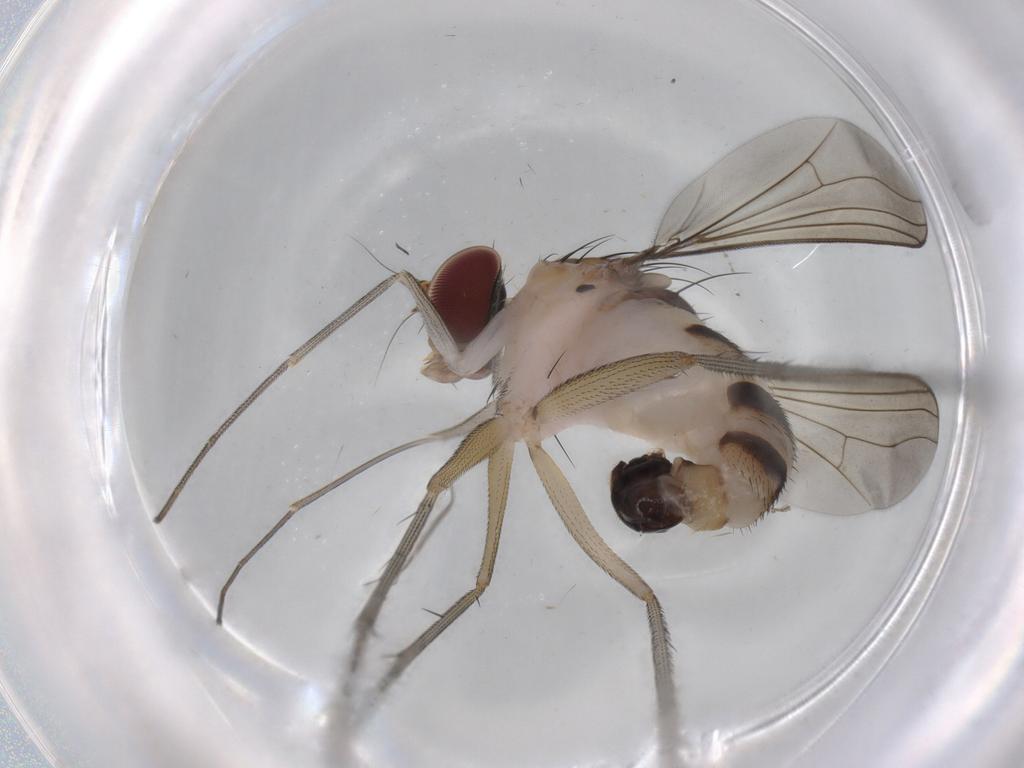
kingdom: Animalia
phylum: Arthropoda
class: Insecta
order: Diptera
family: Dolichopodidae
